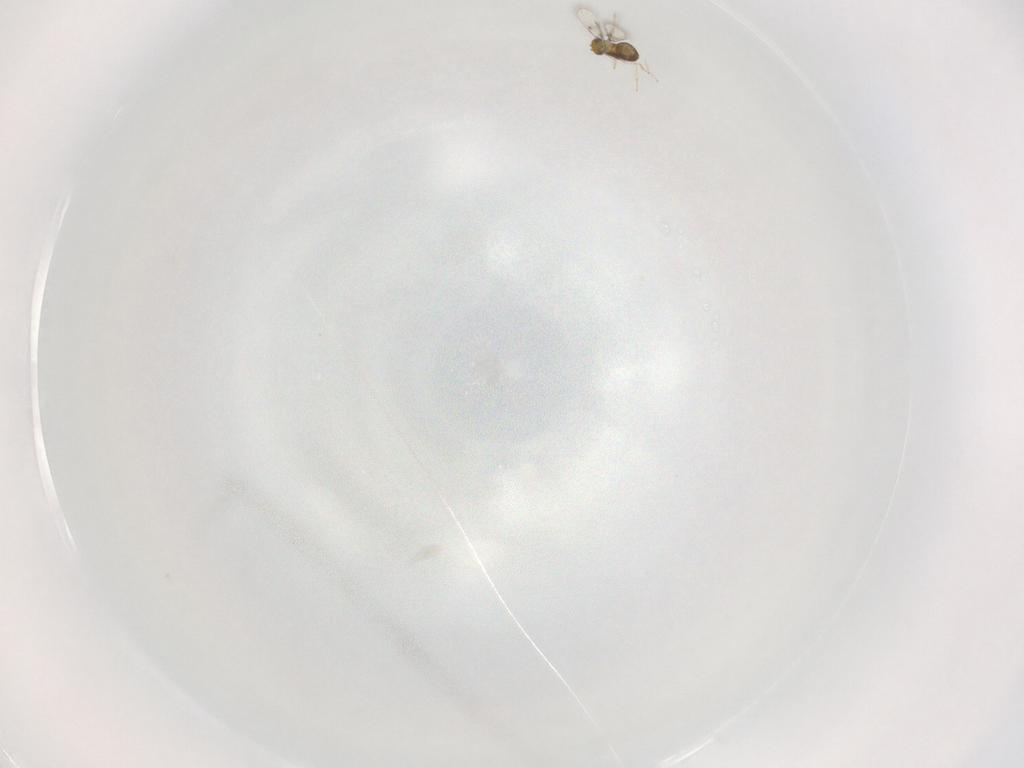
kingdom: Animalia
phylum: Arthropoda
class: Insecta
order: Hymenoptera
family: Trichogrammatidae
